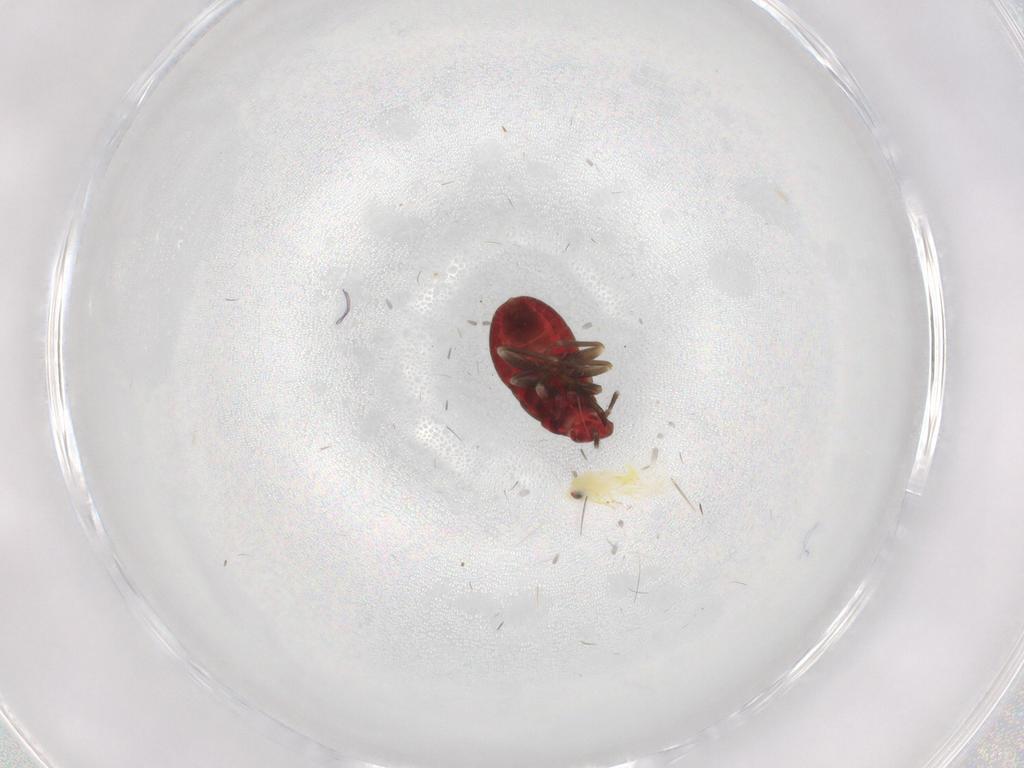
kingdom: Animalia
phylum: Arthropoda
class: Insecta
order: Hemiptera
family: Anthocoridae
